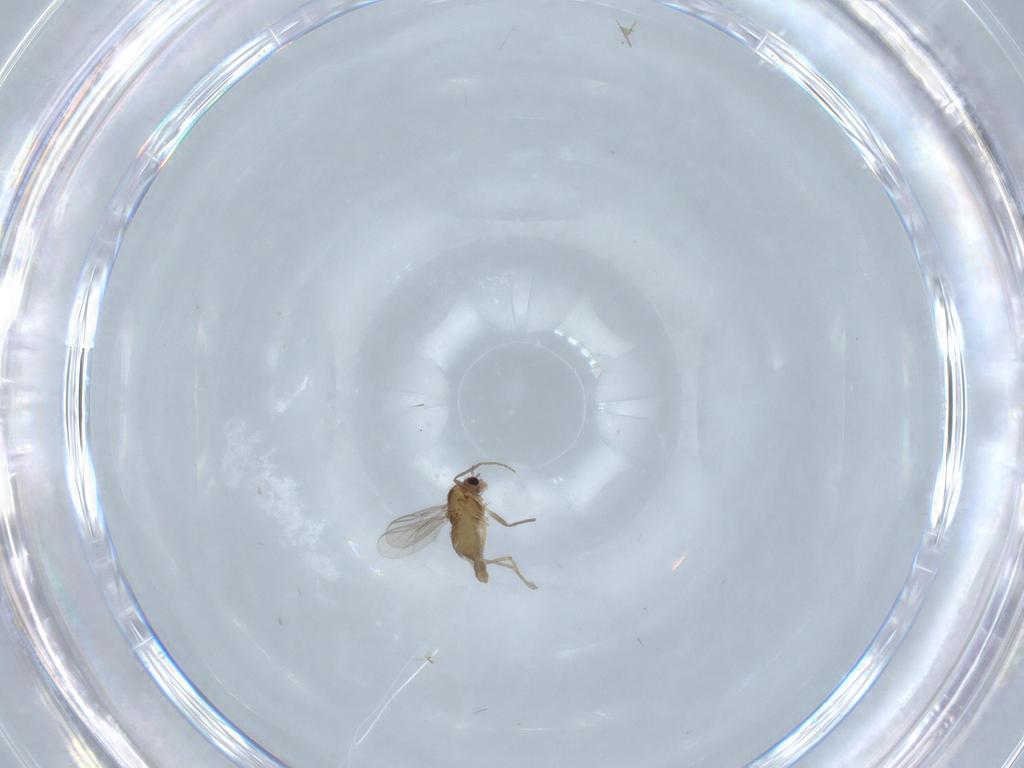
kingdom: Animalia
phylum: Arthropoda
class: Insecta
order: Diptera
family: Chironomidae
